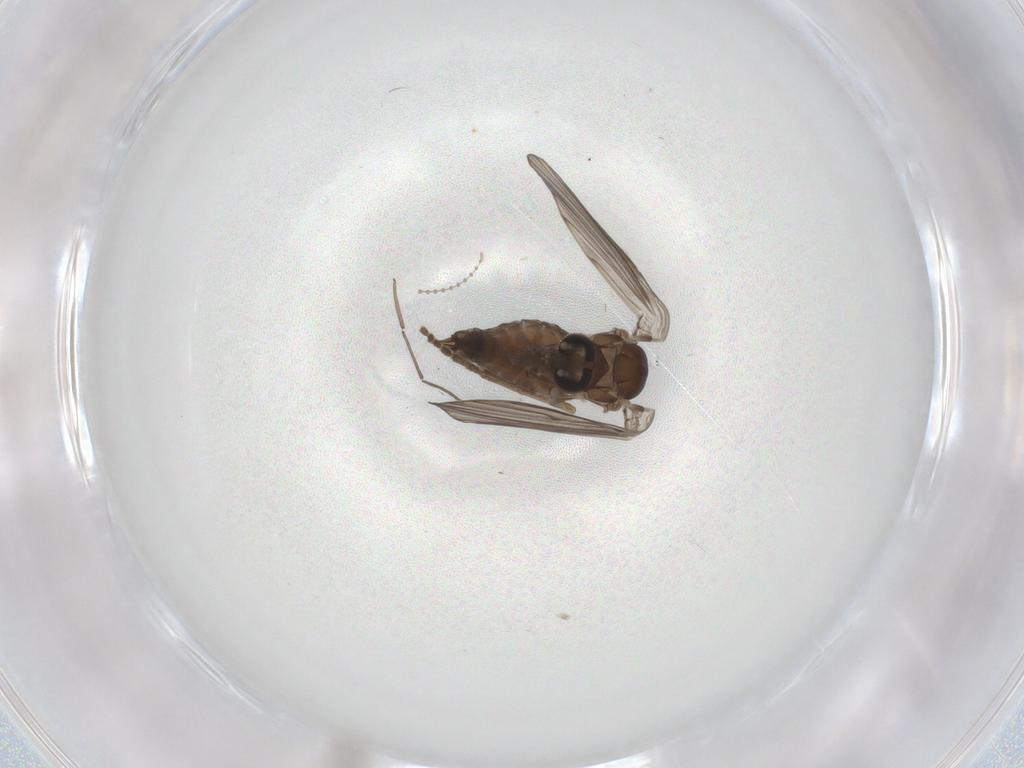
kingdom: Animalia
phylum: Arthropoda
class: Insecta
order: Diptera
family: Psychodidae
